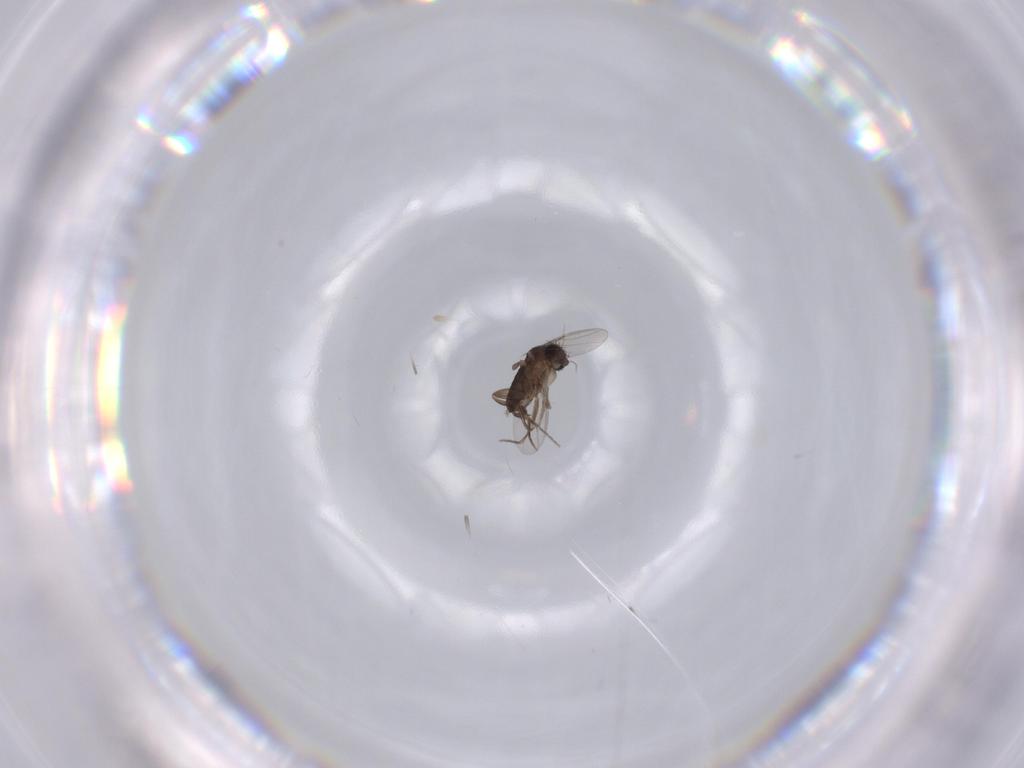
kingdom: Animalia
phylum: Arthropoda
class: Insecta
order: Diptera
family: Phoridae
